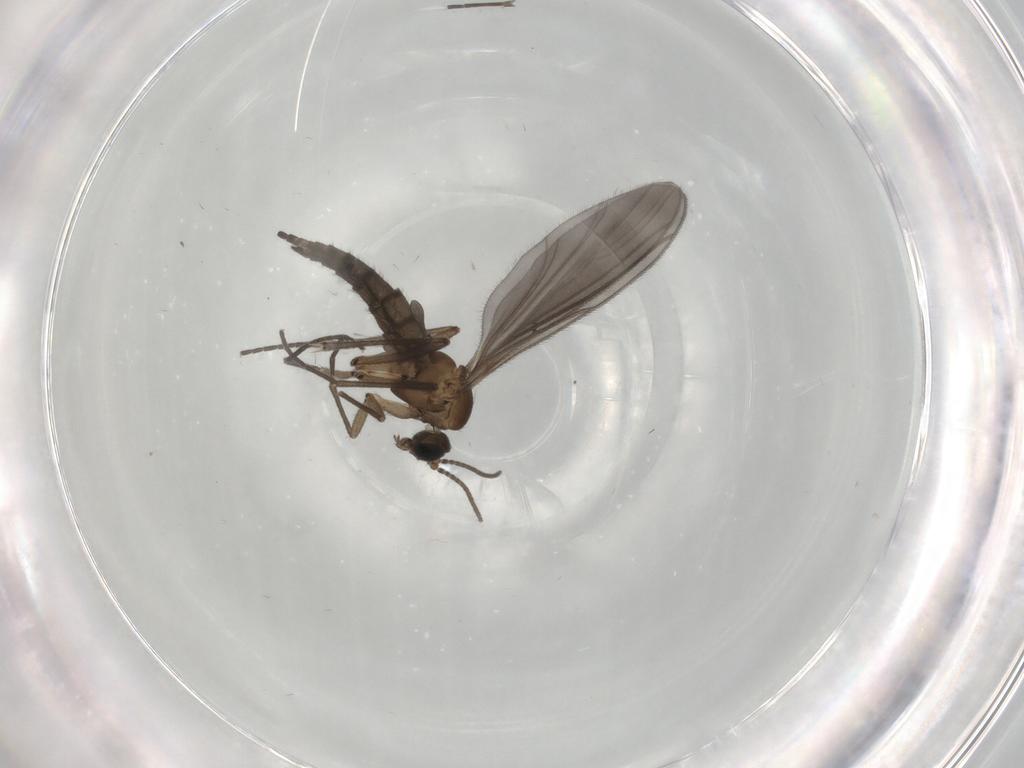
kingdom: Animalia
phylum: Arthropoda
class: Insecta
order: Diptera
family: Sciaridae
